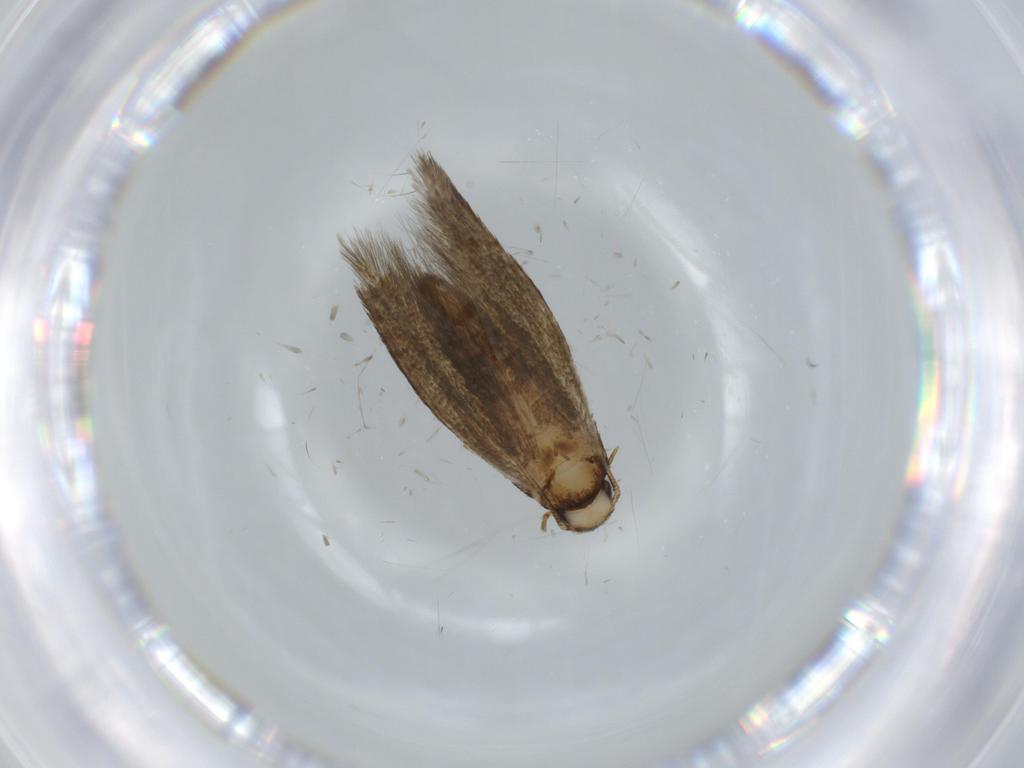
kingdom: Animalia
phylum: Arthropoda
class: Insecta
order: Lepidoptera
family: Tineidae
